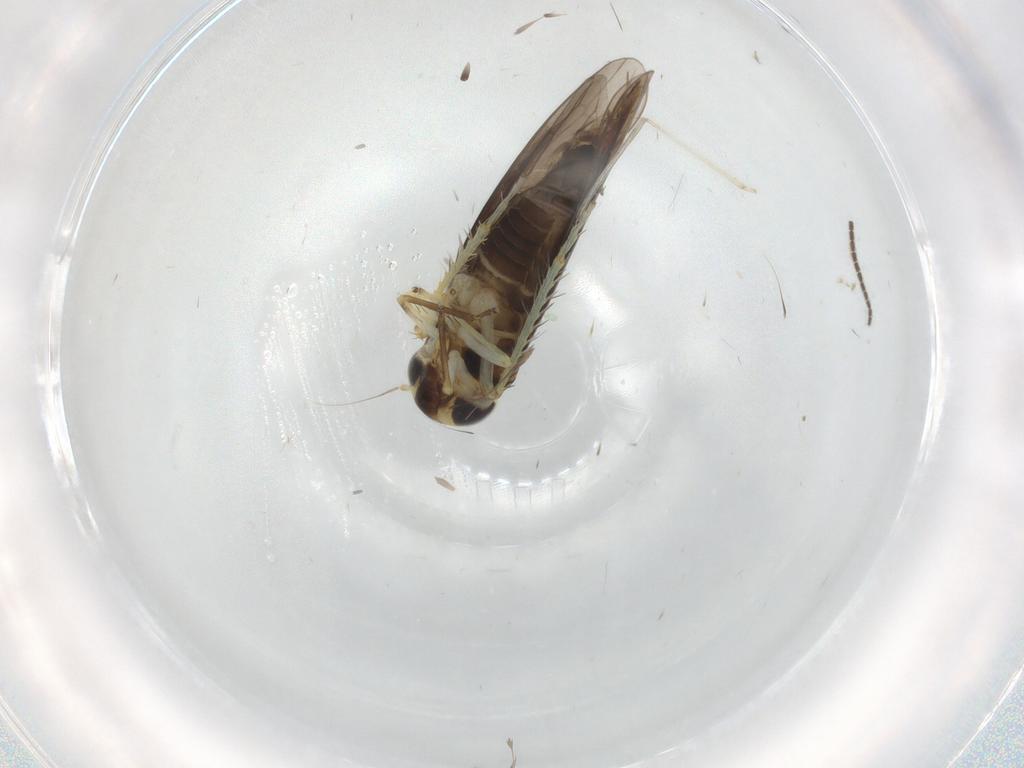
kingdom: Animalia
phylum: Arthropoda
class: Insecta
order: Hemiptera
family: Cicadellidae
